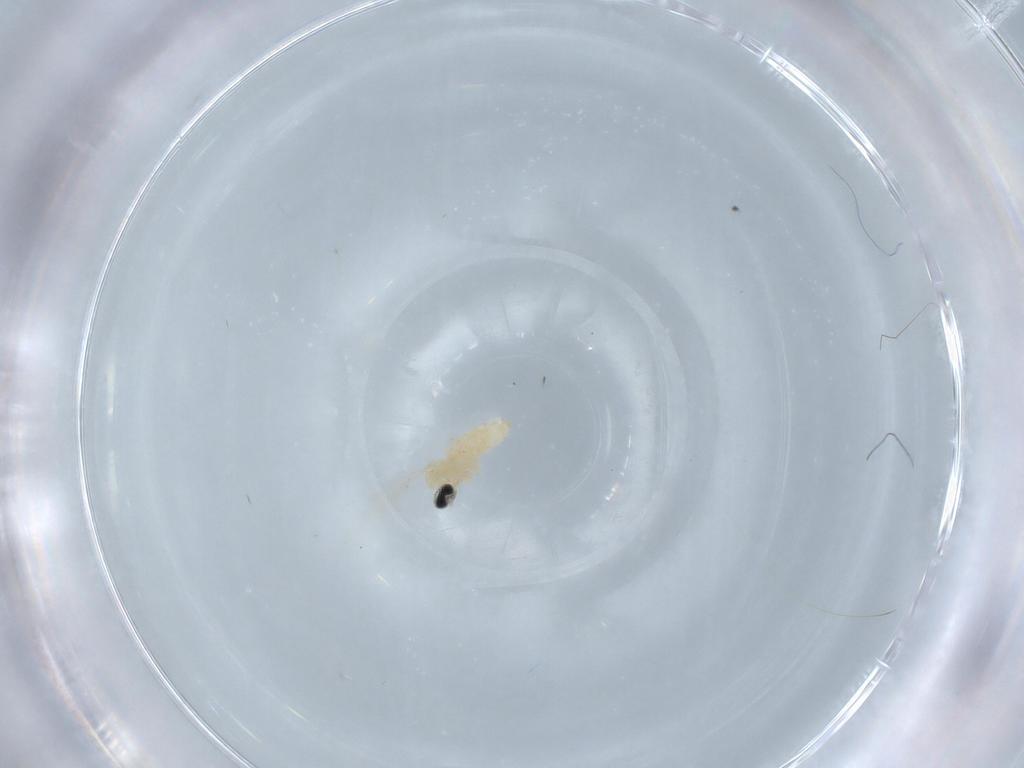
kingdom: Animalia
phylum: Arthropoda
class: Insecta
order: Diptera
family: Cecidomyiidae
